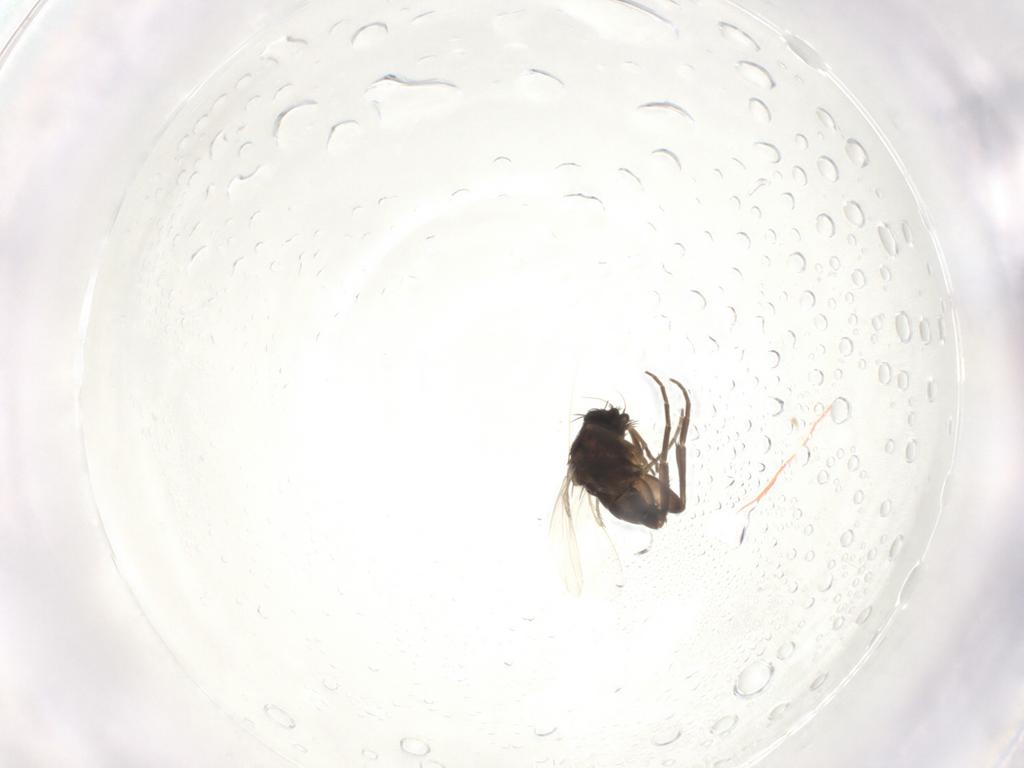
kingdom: Animalia
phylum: Arthropoda
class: Insecta
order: Diptera
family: Phoridae
